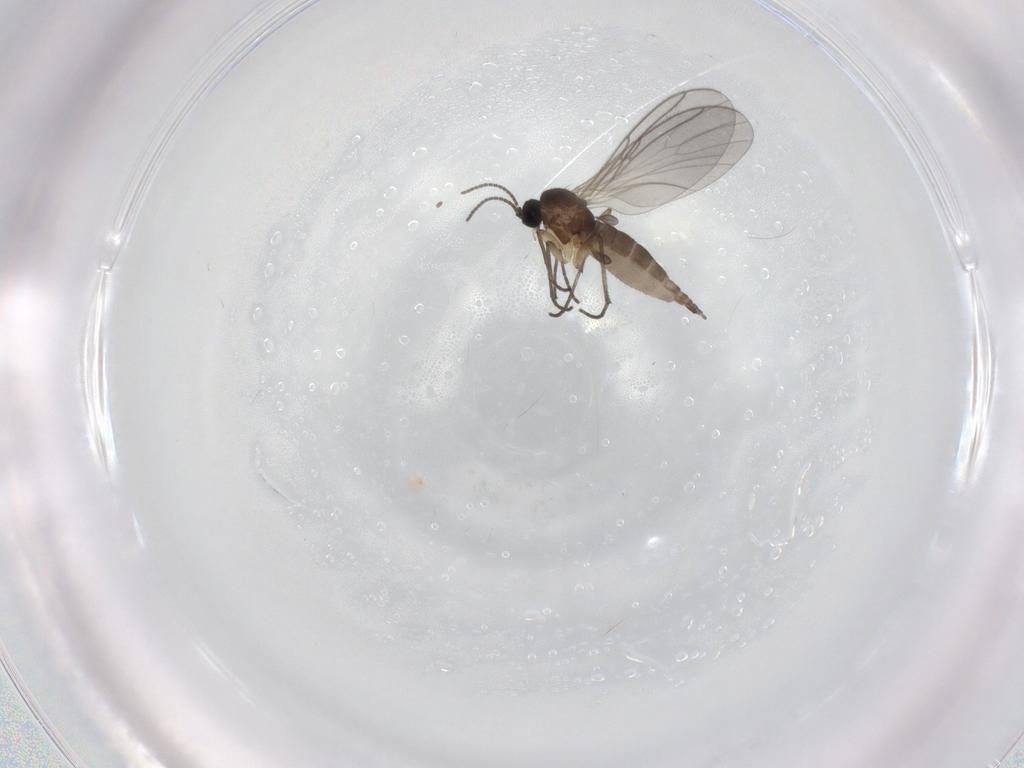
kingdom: Animalia
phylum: Arthropoda
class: Insecta
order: Diptera
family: Sciaridae
